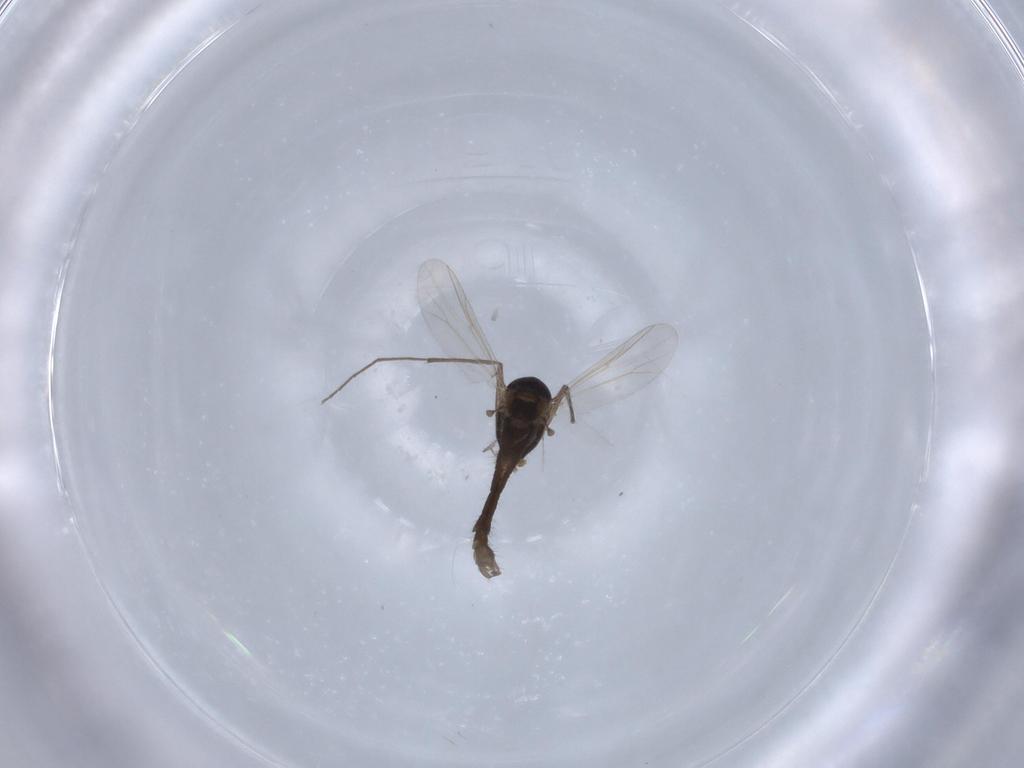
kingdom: Animalia
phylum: Arthropoda
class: Insecta
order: Diptera
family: Chironomidae
